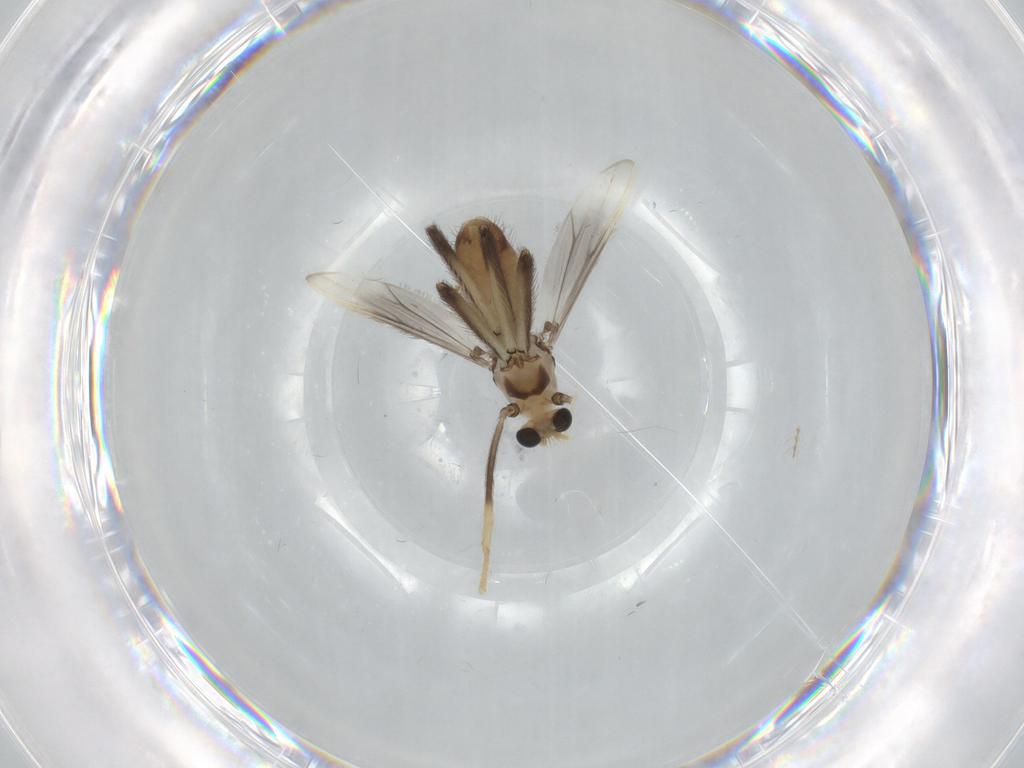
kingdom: Animalia
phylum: Arthropoda
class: Insecta
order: Diptera
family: Chironomidae
